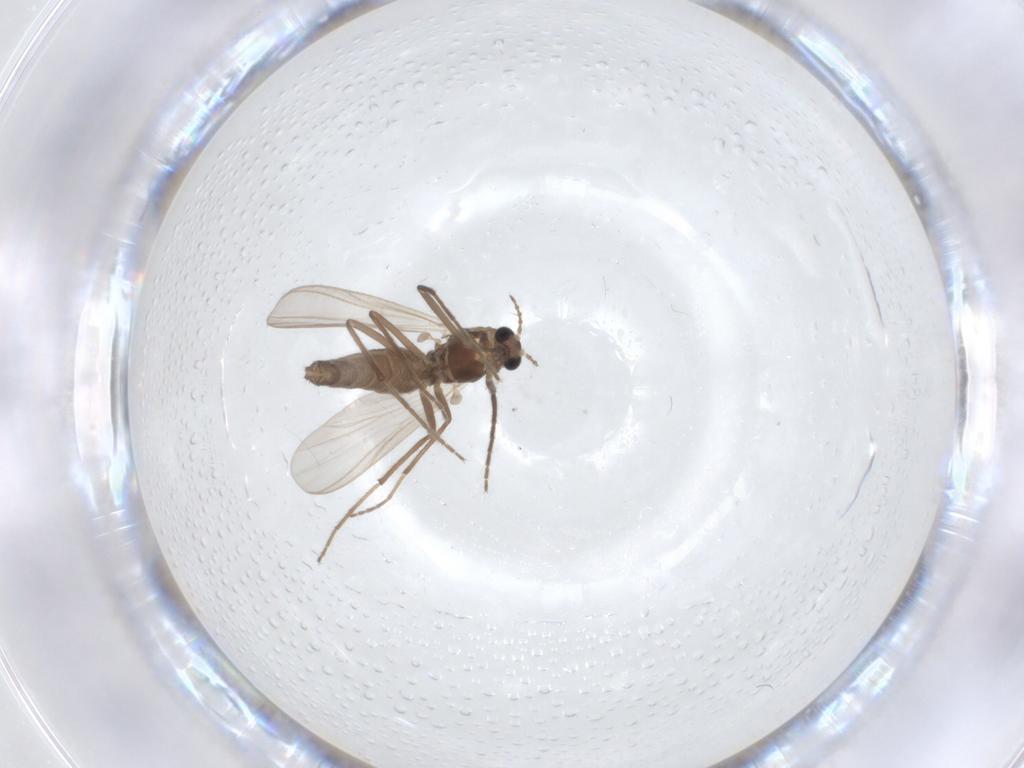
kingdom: Animalia
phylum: Arthropoda
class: Insecta
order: Diptera
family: Chironomidae
